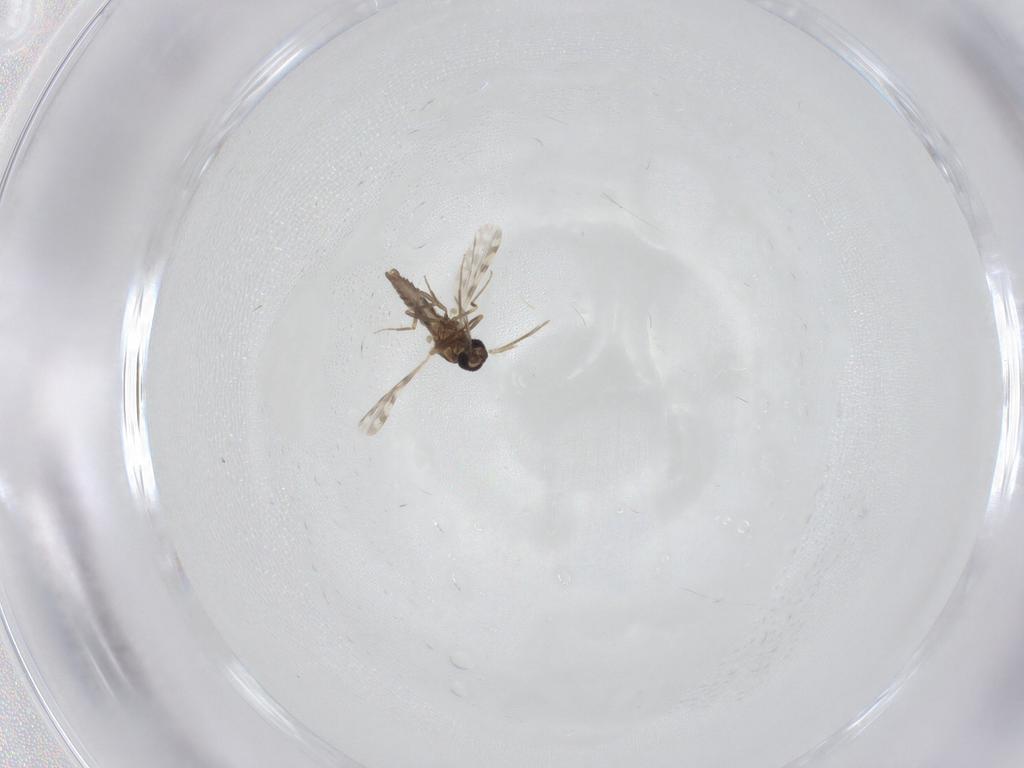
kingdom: Animalia
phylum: Arthropoda
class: Insecta
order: Diptera
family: Ceratopogonidae
